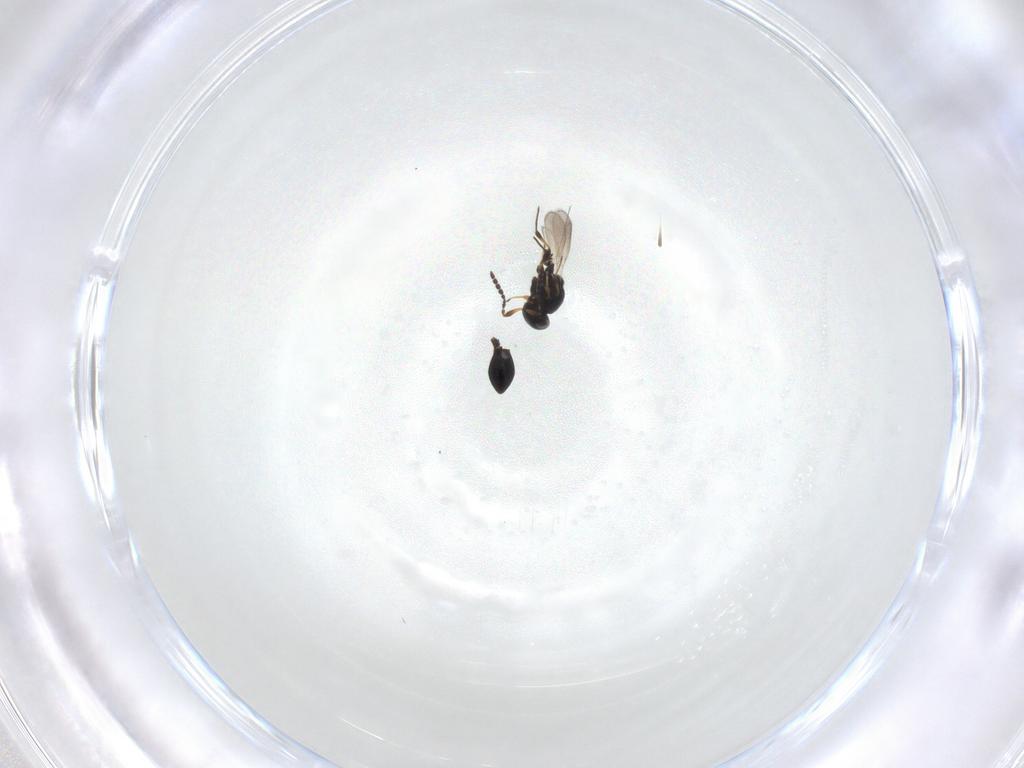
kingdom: Animalia
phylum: Arthropoda
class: Insecta
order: Hymenoptera
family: Platygastridae
